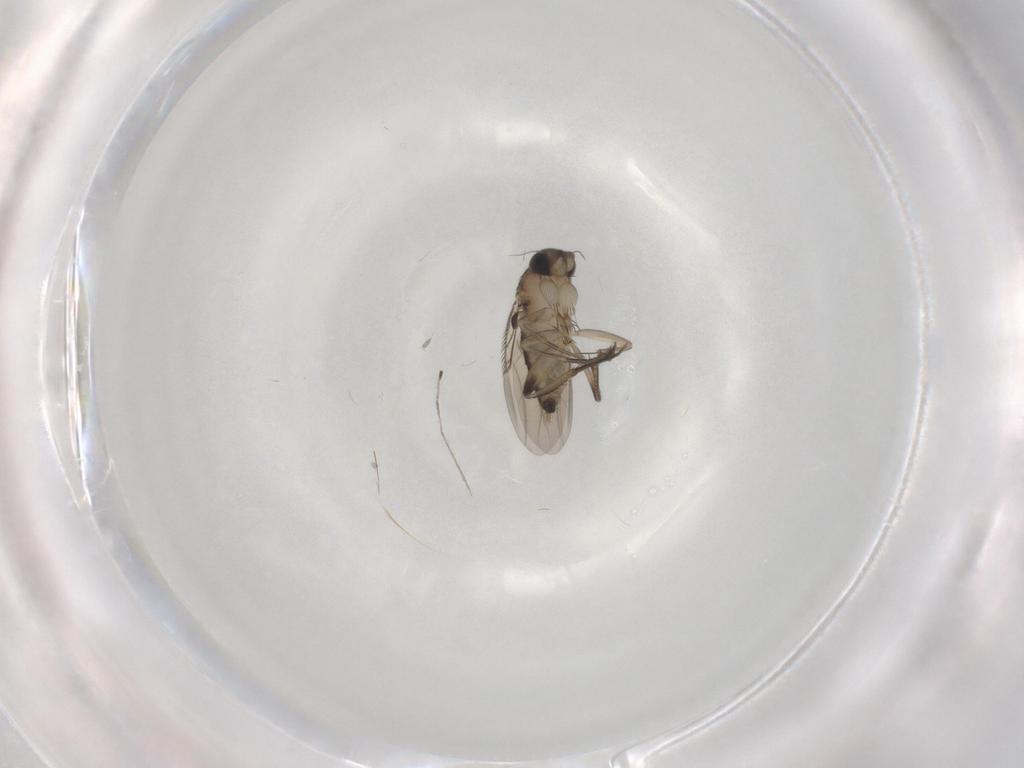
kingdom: Animalia
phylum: Arthropoda
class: Insecta
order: Diptera
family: Phoridae
